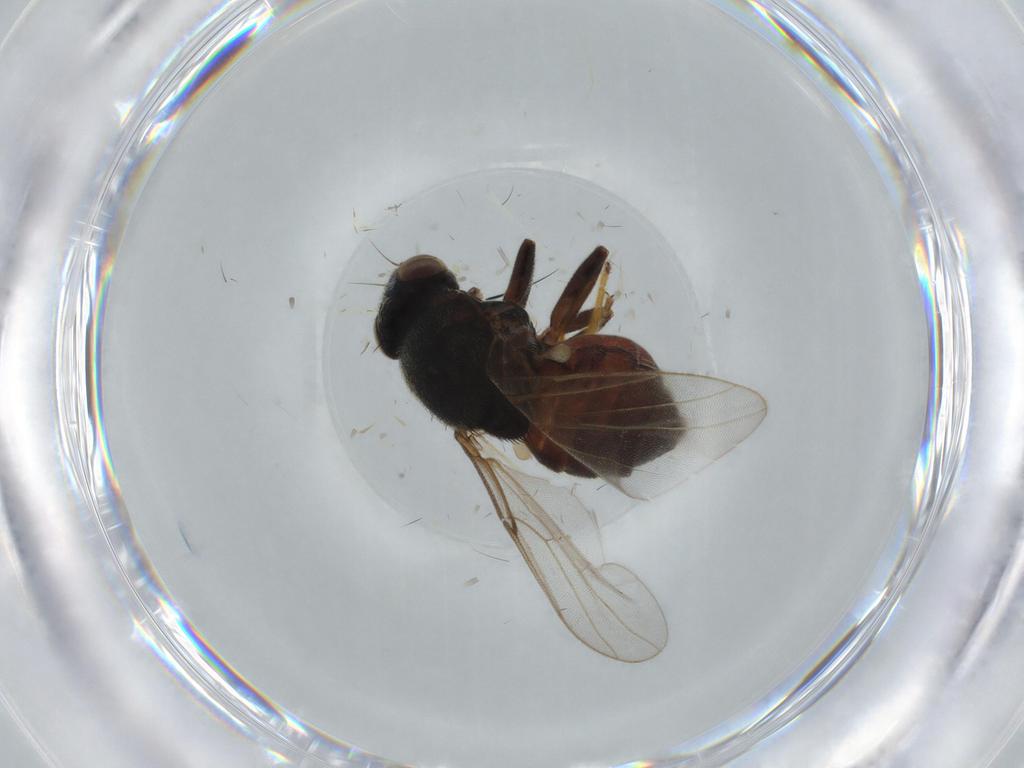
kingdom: Animalia
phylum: Arthropoda
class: Insecta
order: Diptera
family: Chloropidae
